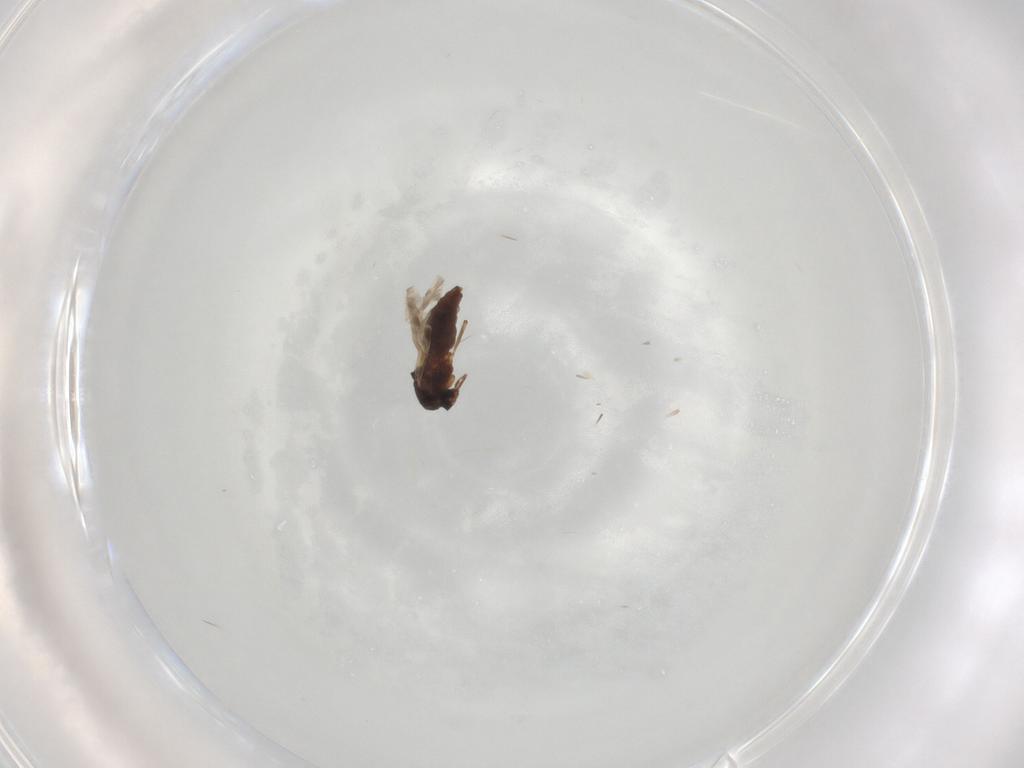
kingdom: Animalia
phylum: Arthropoda
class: Insecta
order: Diptera
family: Ceratopogonidae
